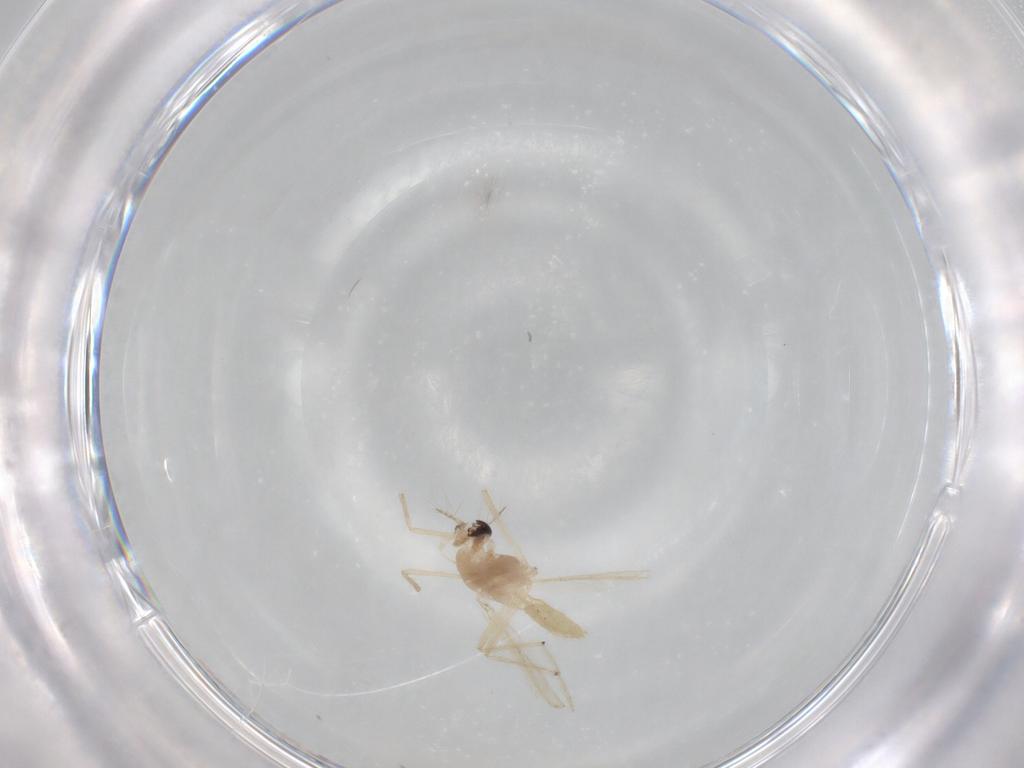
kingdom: Animalia
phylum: Arthropoda
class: Insecta
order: Diptera
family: Chironomidae
